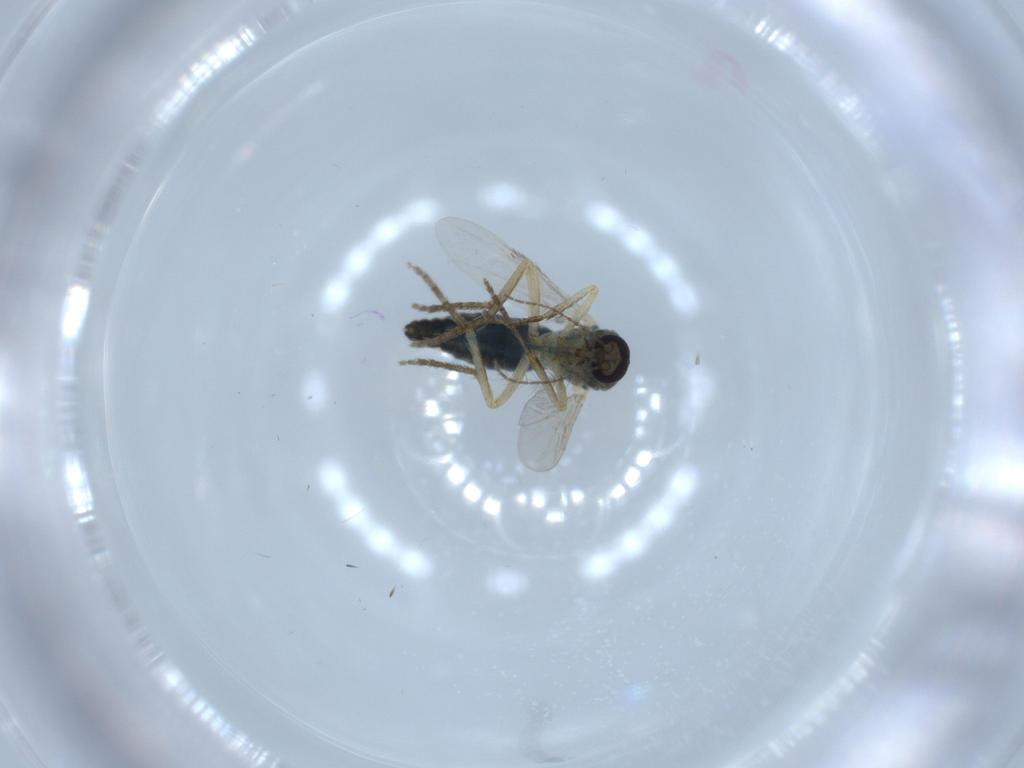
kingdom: Animalia
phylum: Arthropoda
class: Insecta
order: Diptera
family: Ceratopogonidae
